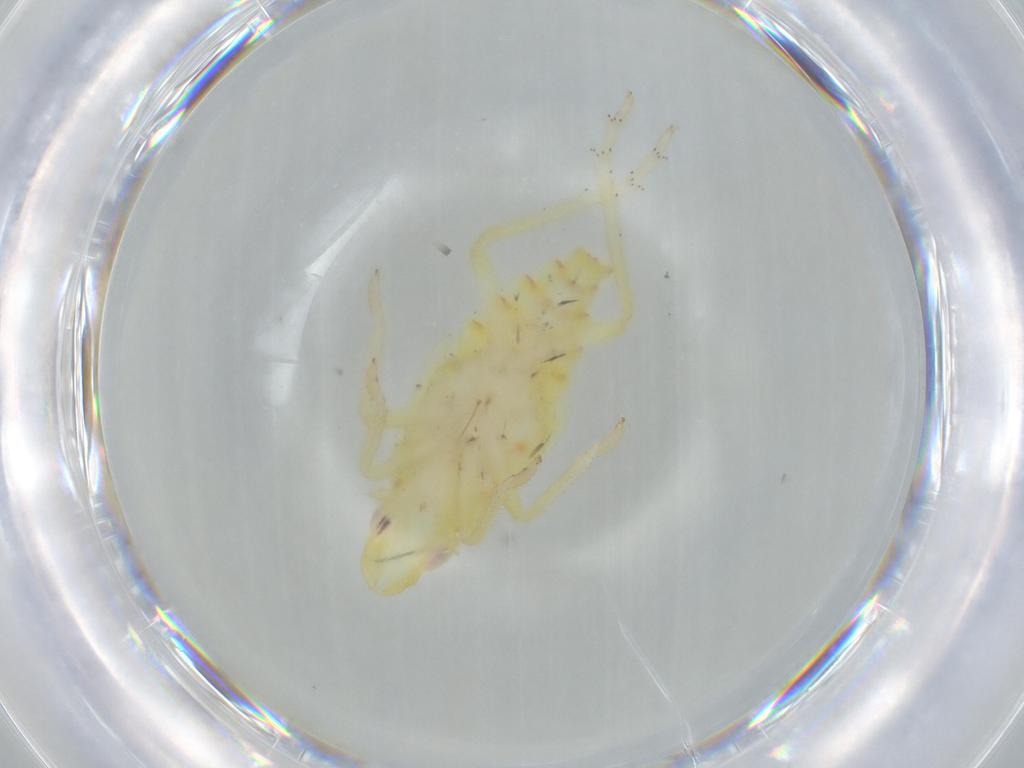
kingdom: Animalia
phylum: Arthropoda
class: Insecta
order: Hemiptera
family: Tropiduchidae
